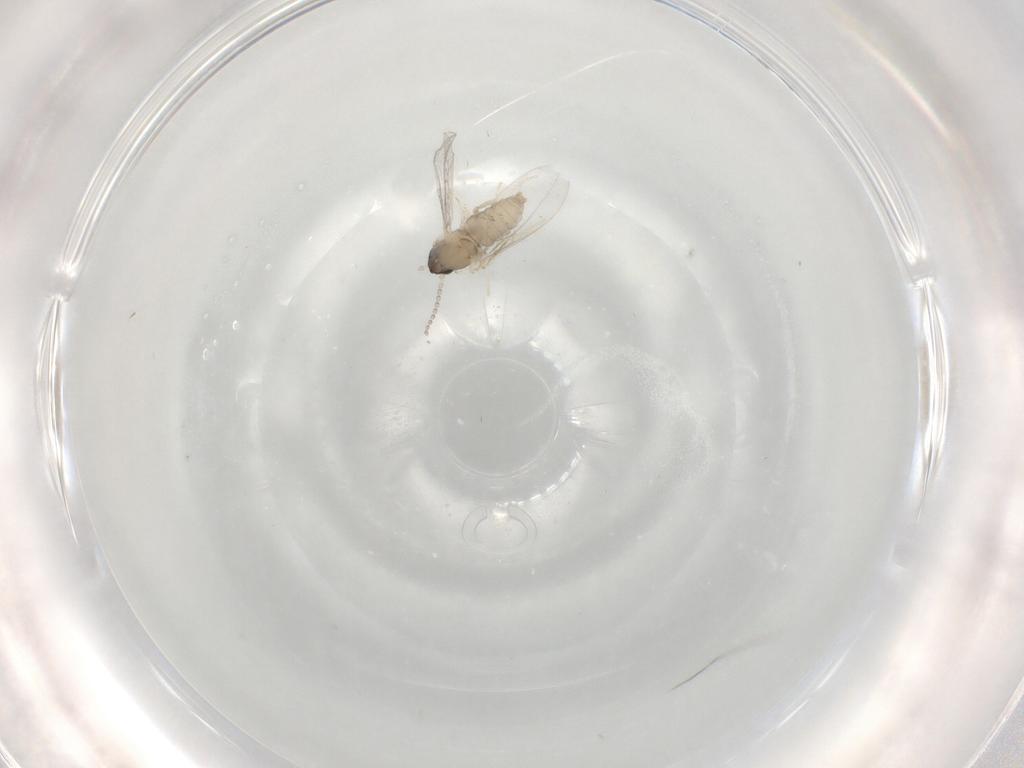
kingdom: Animalia
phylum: Arthropoda
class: Insecta
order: Diptera
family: Cecidomyiidae
